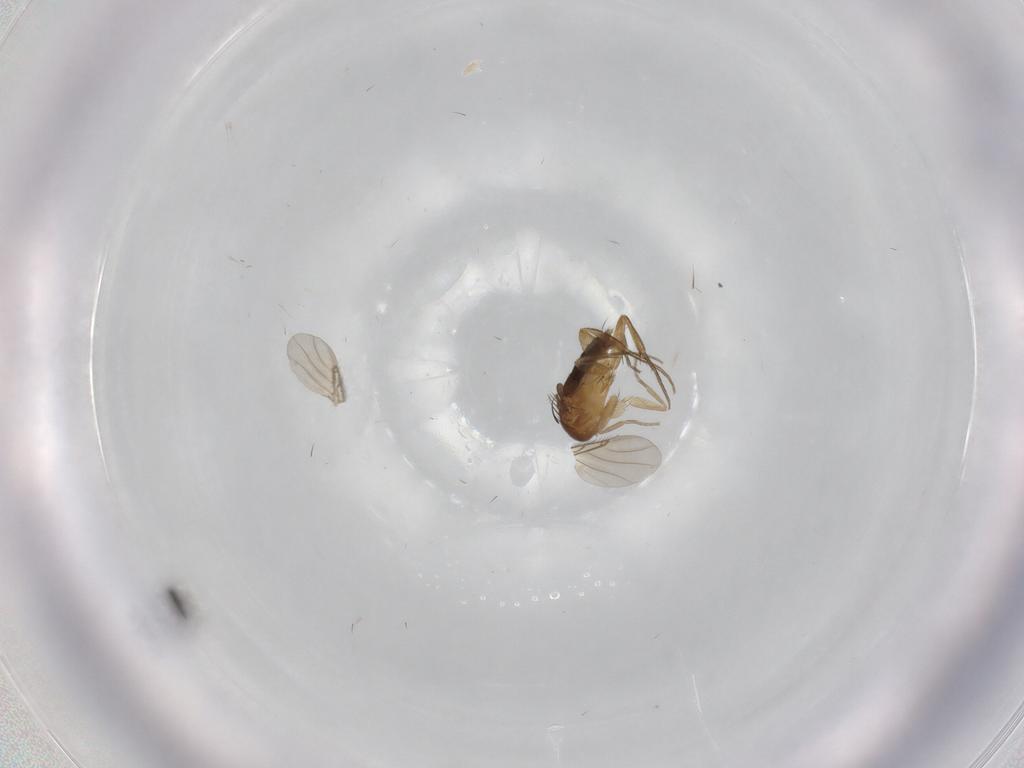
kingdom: Animalia
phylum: Arthropoda
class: Insecta
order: Diptera
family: Phoridae
